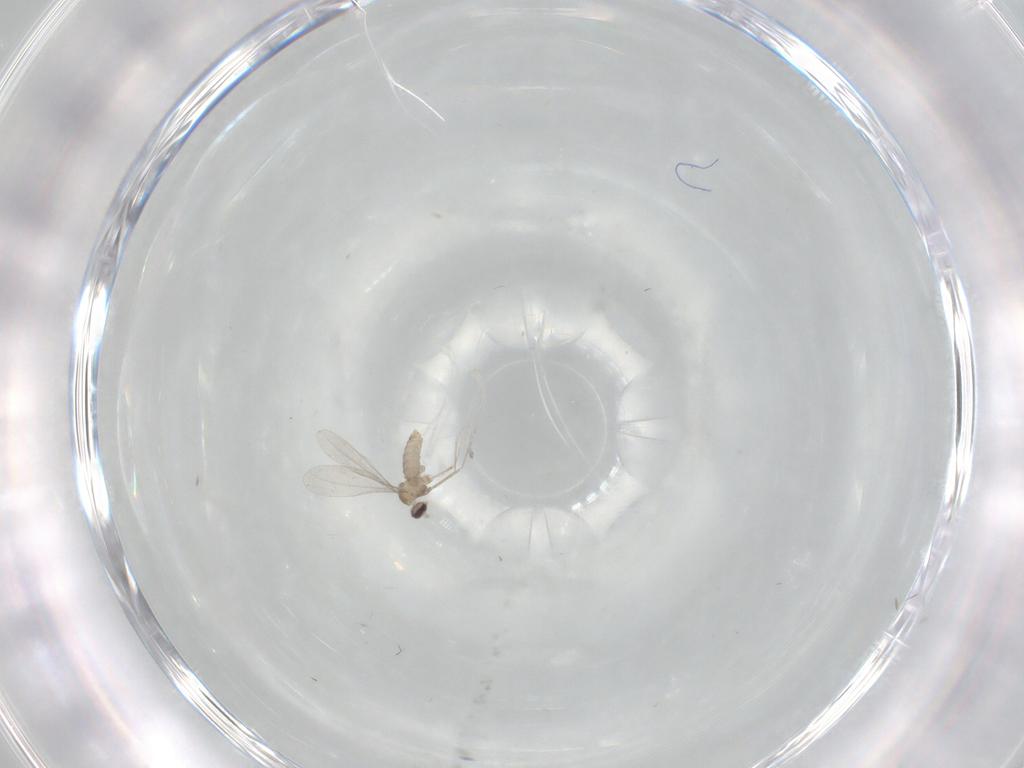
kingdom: Animalia
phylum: Arthropoda
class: Insecta
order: Diptera
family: Cecidomyiidae
